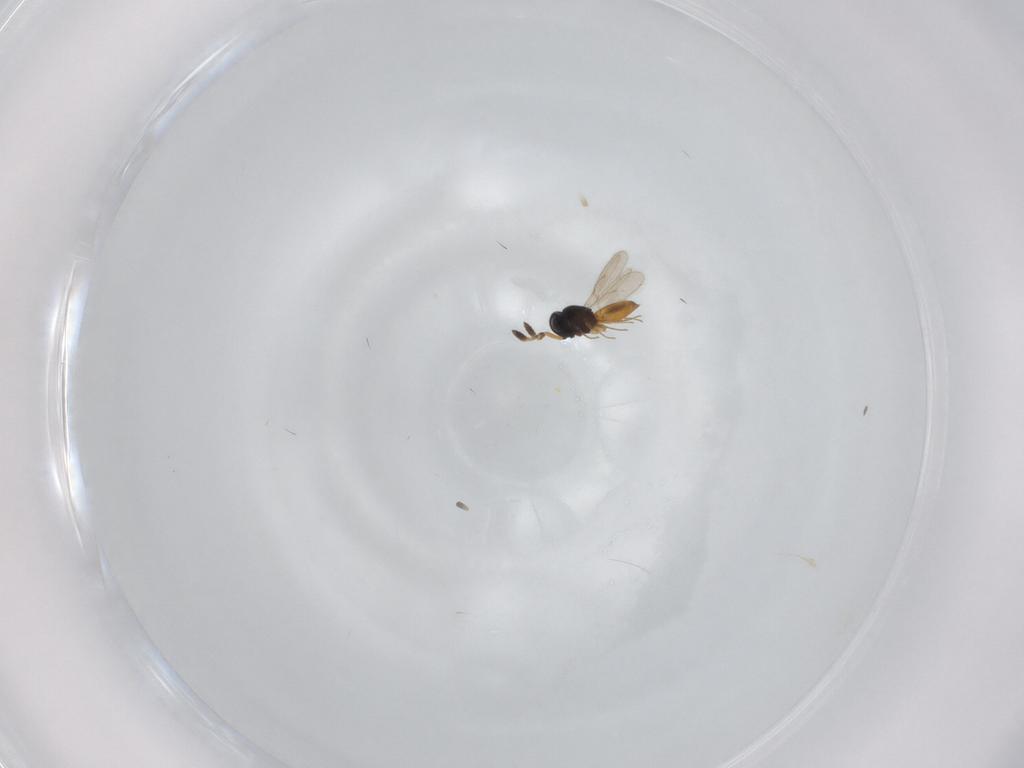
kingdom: Animalia
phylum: Arthropoda
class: Insecta
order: Hymenoptera
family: Scelionidae
